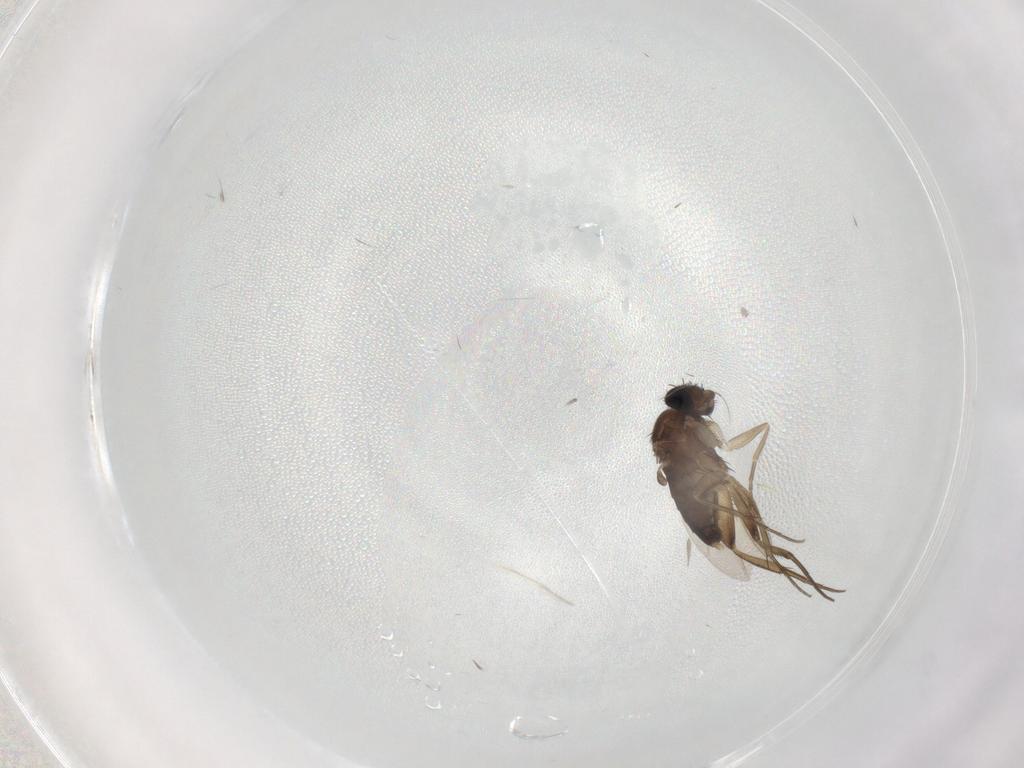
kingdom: Animalia
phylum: Arthropoda
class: Insecta
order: Diptera
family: Phoridae
